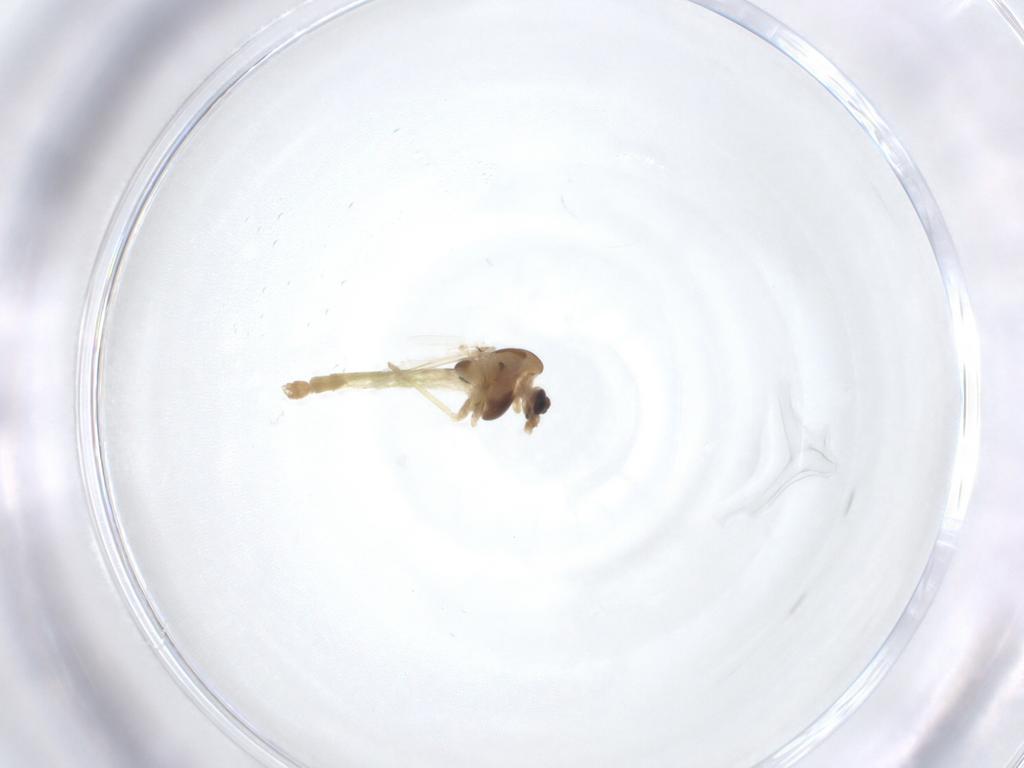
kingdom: Animalia
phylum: Arthropoda
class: Insecta
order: Diptera
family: Chironomidae
